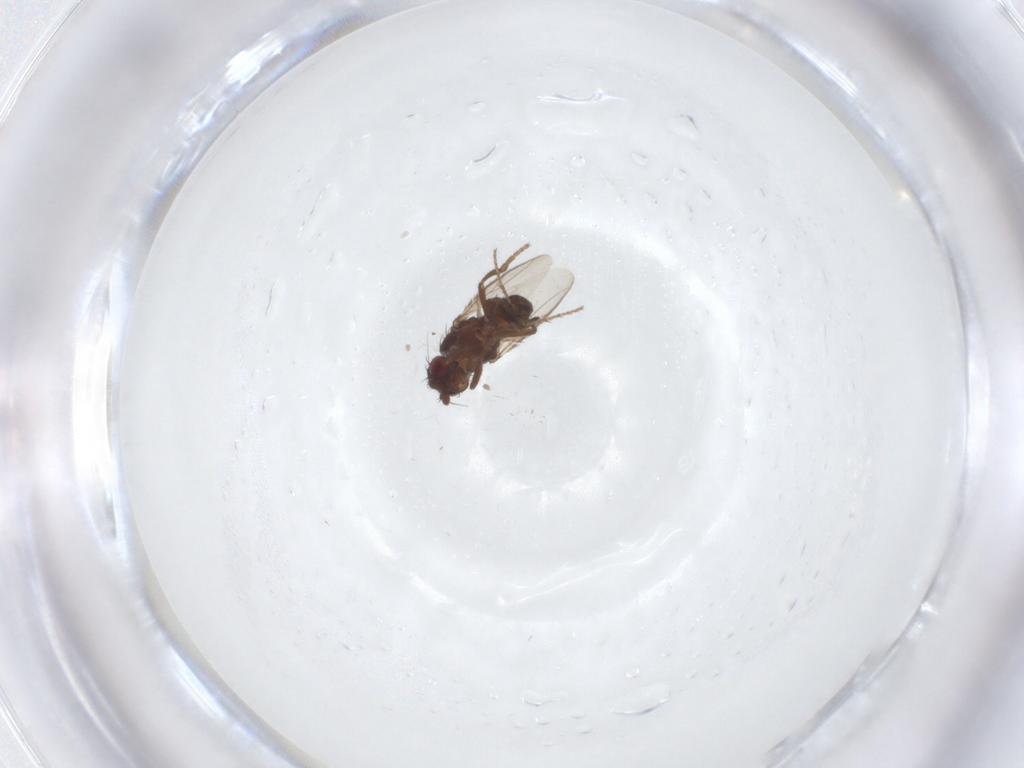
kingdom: Animalia
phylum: Arthropoda
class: Insecta
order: Diptera
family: Sphaeroceridae
